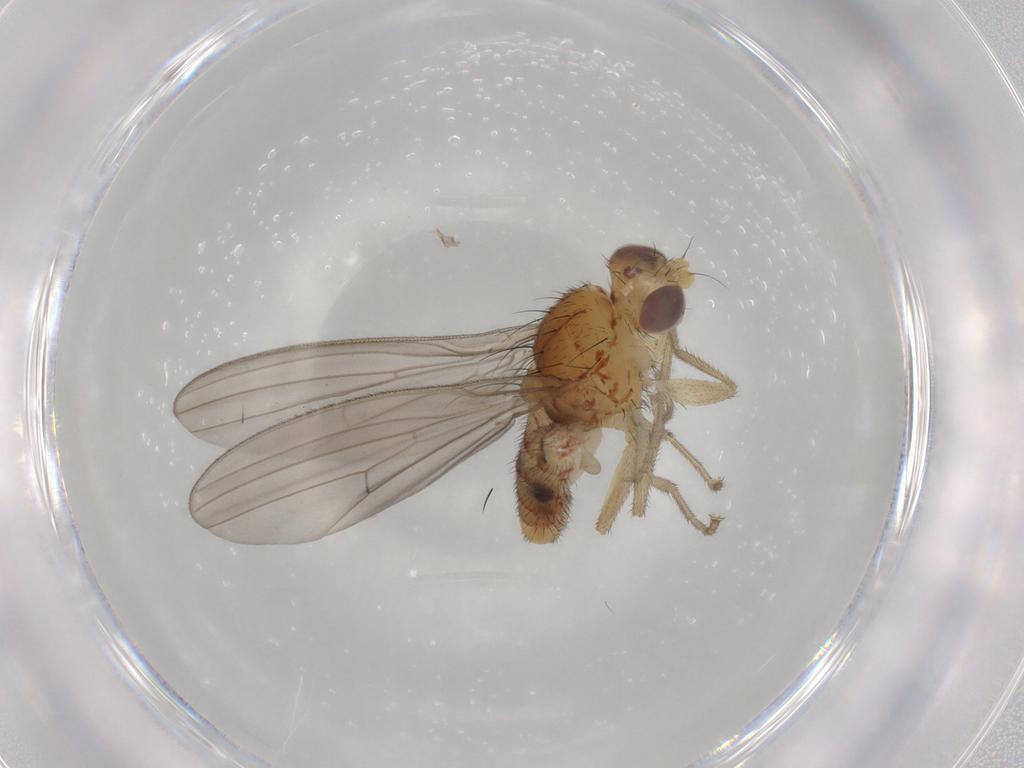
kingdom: Animalia
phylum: Arthropoda
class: Insecta
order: Diptera
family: Natalimyzidae
